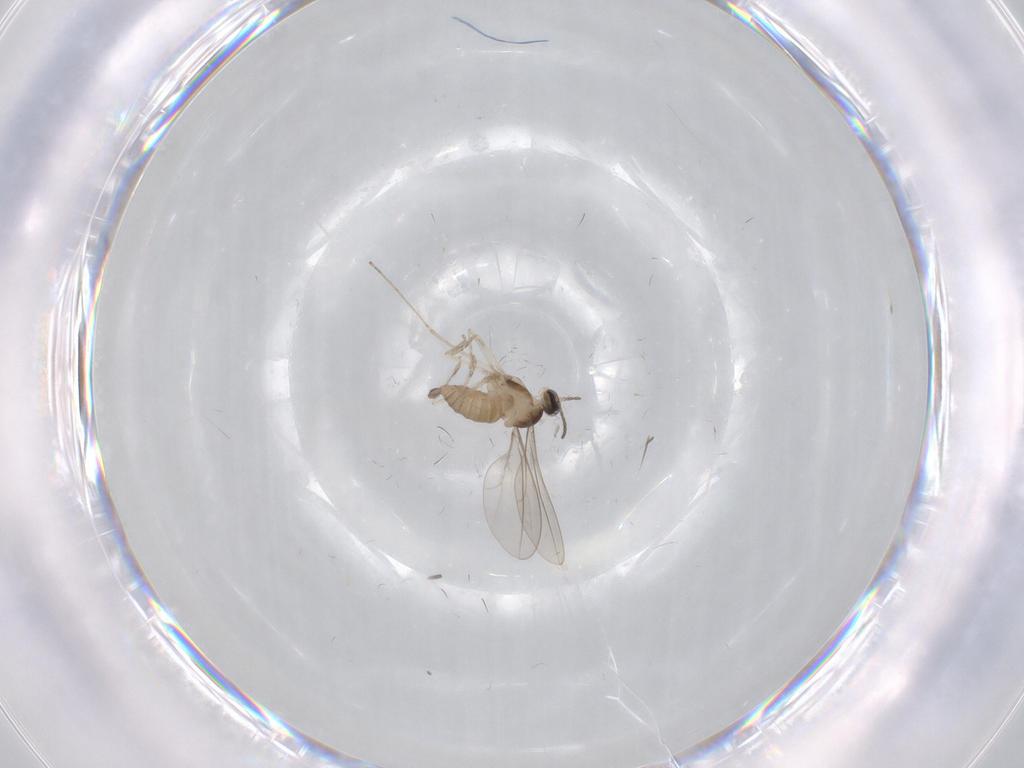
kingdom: Animalia
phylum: Arthropoda
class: Insecta
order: Diptera
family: Cecidomyiidae
